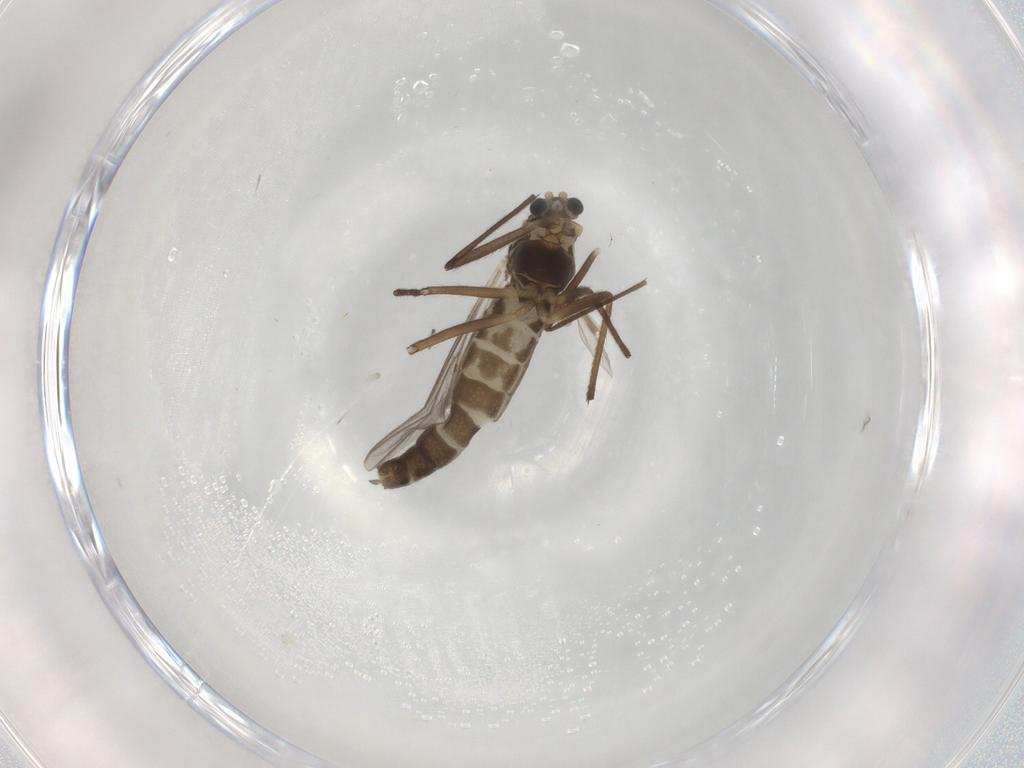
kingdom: Animalia
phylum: Arthropoda
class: Insecta
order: Diptera
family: Chironomidae
